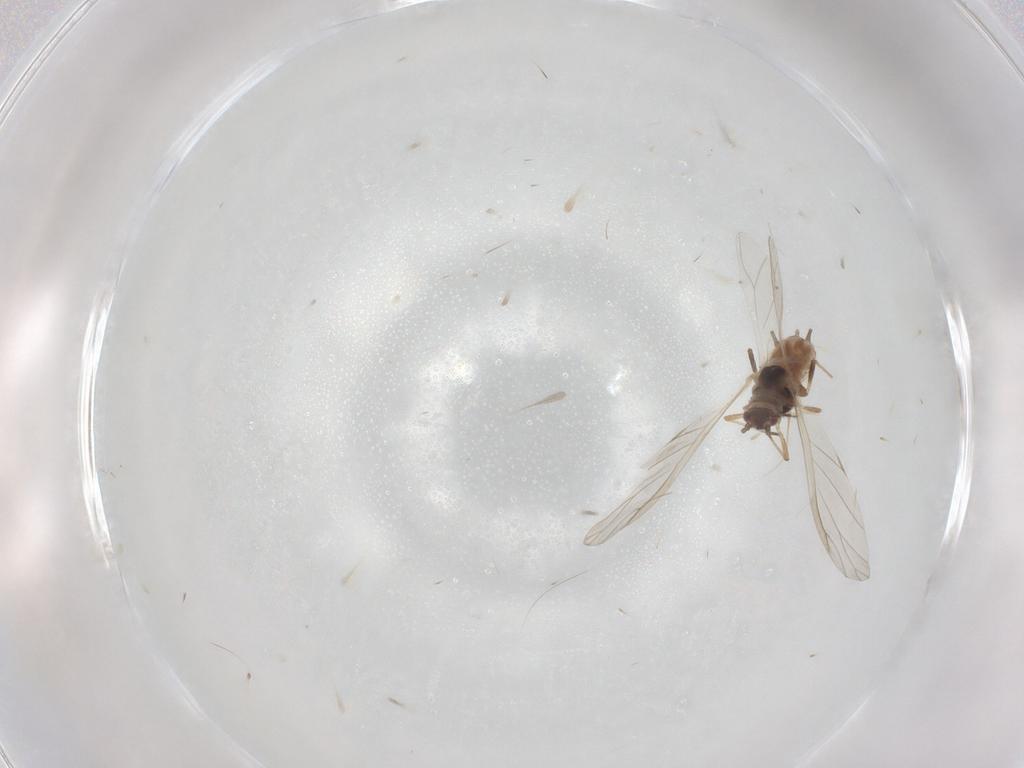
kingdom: Animalia
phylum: Arthropoda
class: Insecta
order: Hemiptera
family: Aphididae
